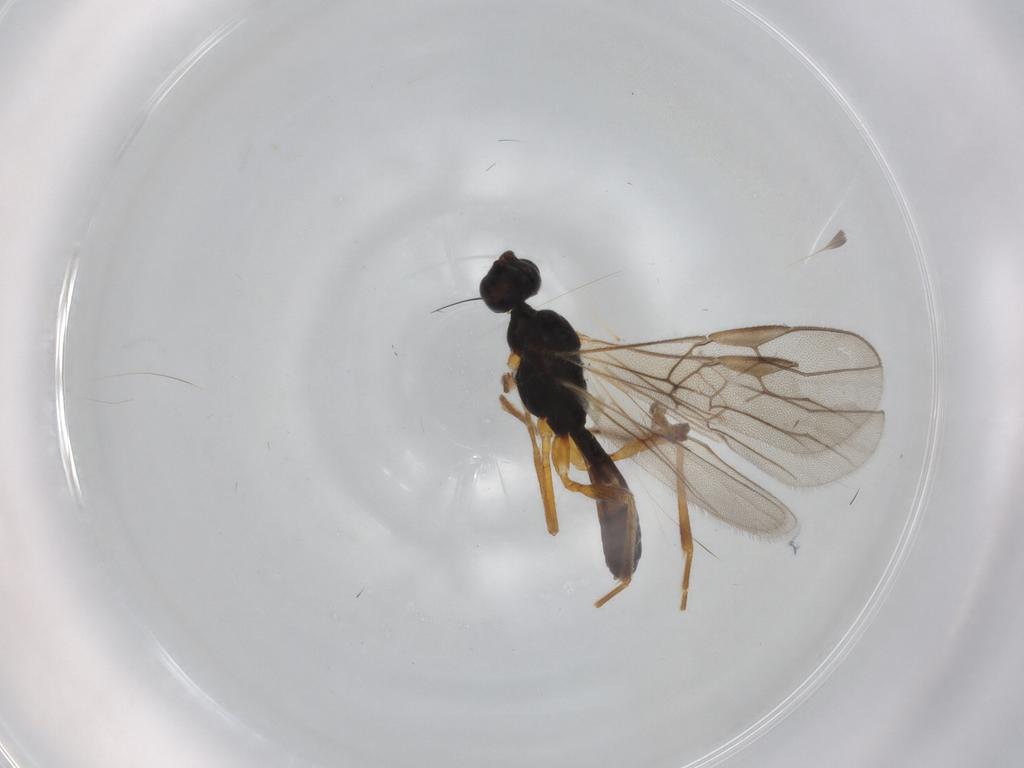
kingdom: Animalia
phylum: Arthropoda
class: Insecta
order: Hymenoptera
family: Braconidae
